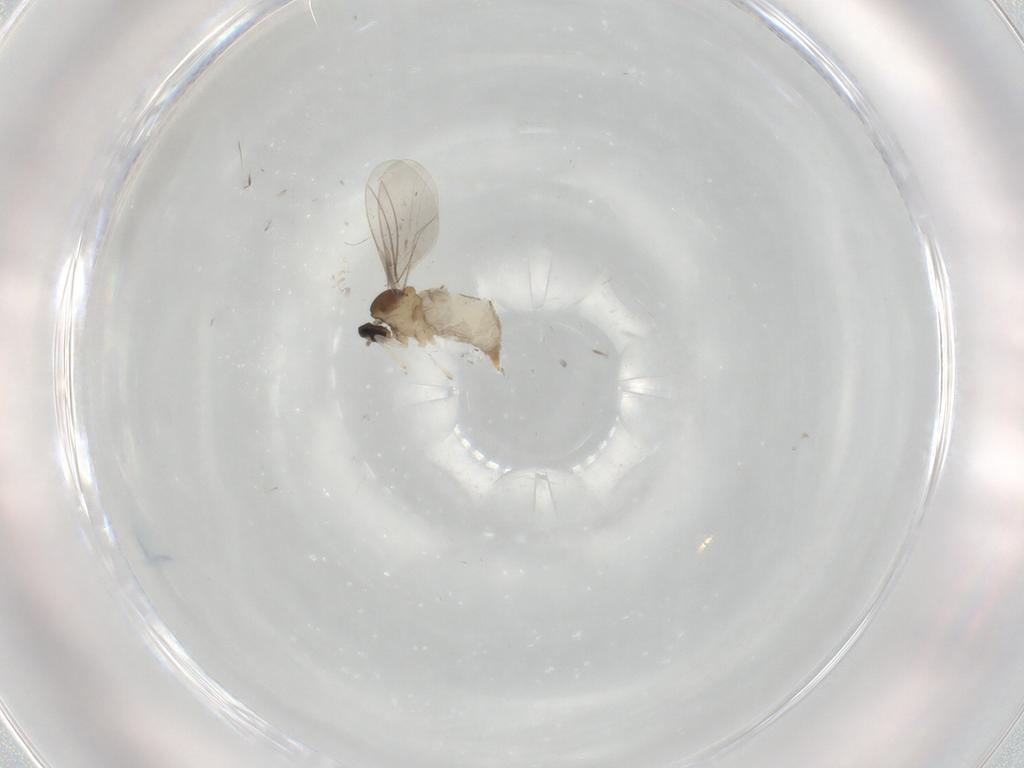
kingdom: Animalia
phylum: Arthropoda
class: Insecta
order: Diptera
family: Ceratopogonidae
